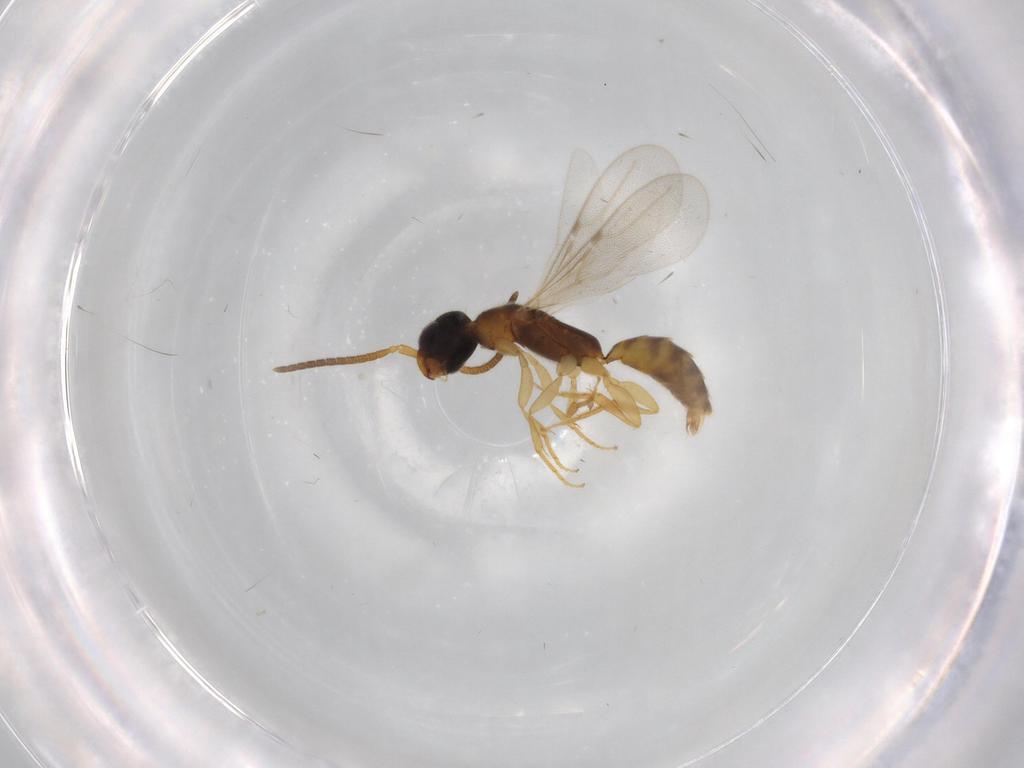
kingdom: Animalia
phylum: Arthropoda
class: Insecta
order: Hymenoptera
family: Bethylidae
